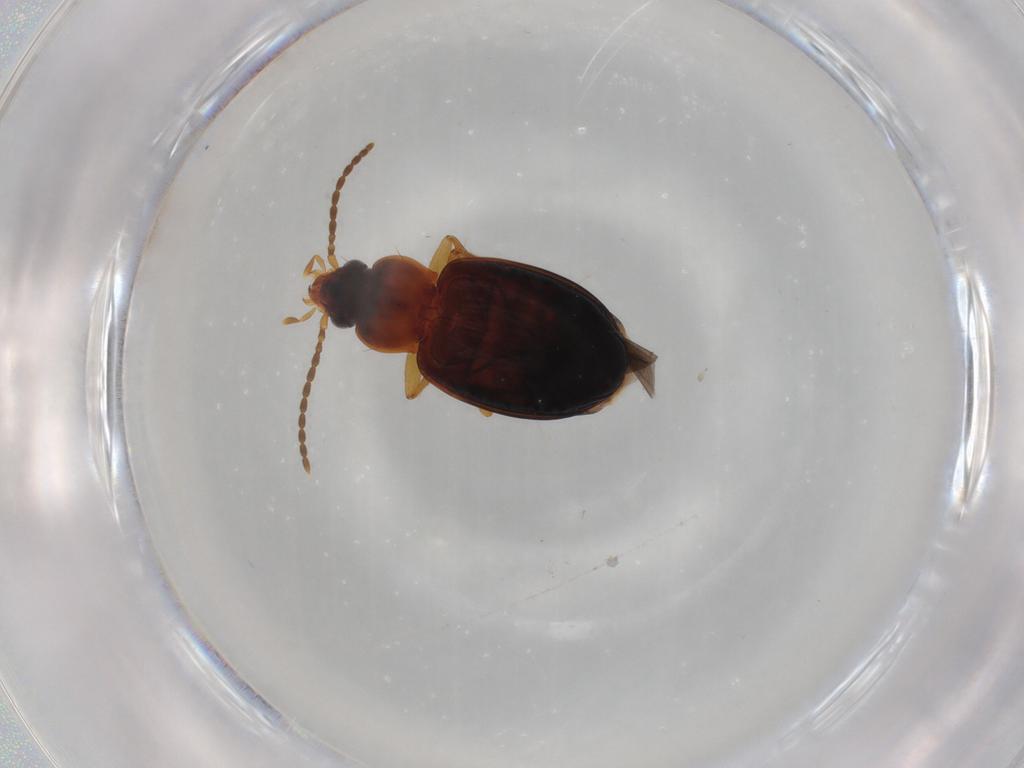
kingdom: Animalia
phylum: Arthropoda
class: Insecta
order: Coleoptera
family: Carabidae
